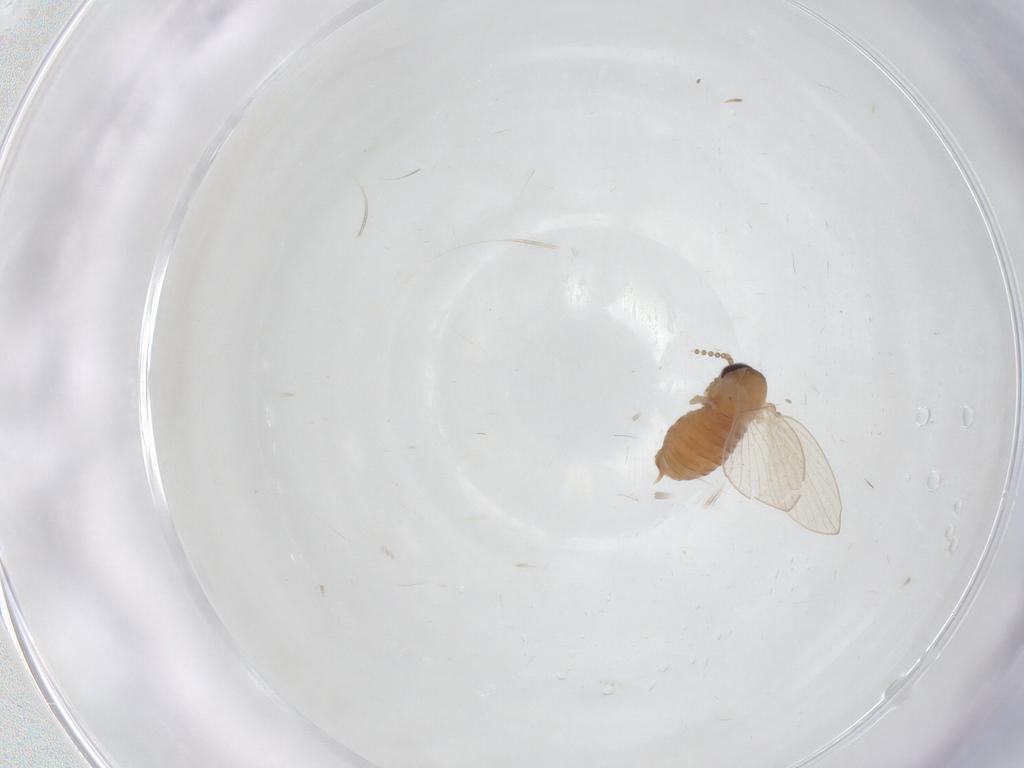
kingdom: Animalia
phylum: Arthropoda
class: Insecta
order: Diptera
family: Psychodidae
